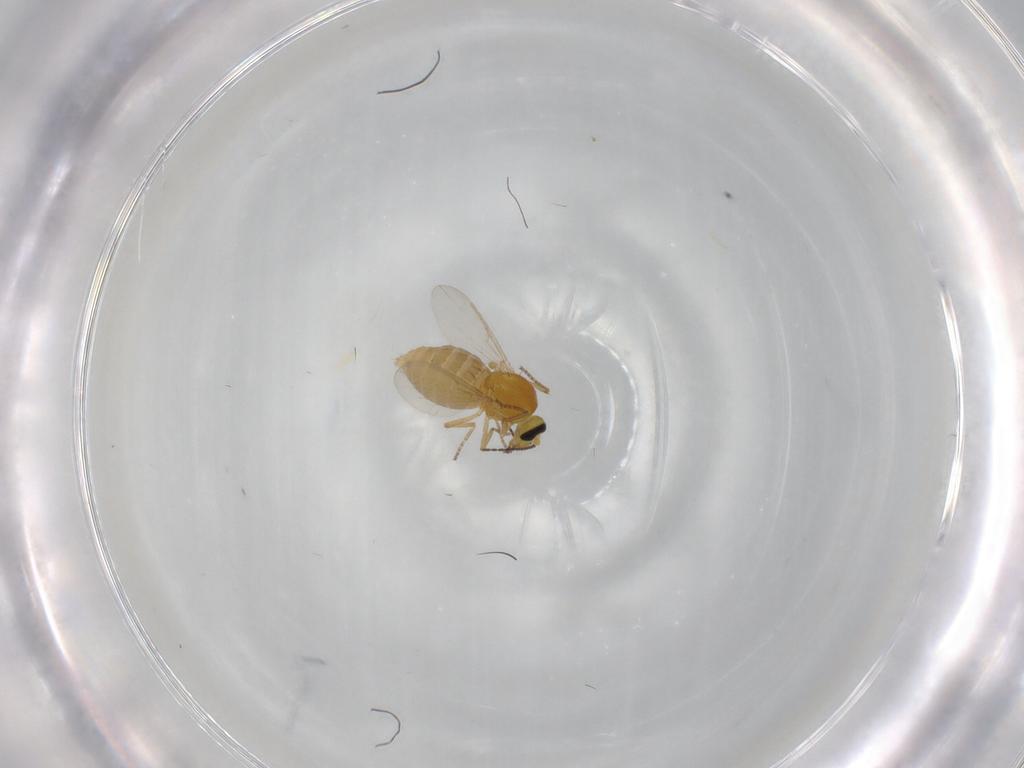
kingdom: Animalia
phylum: Arthropoda
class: Insecta
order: Diptera
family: Ceratopogonidae
